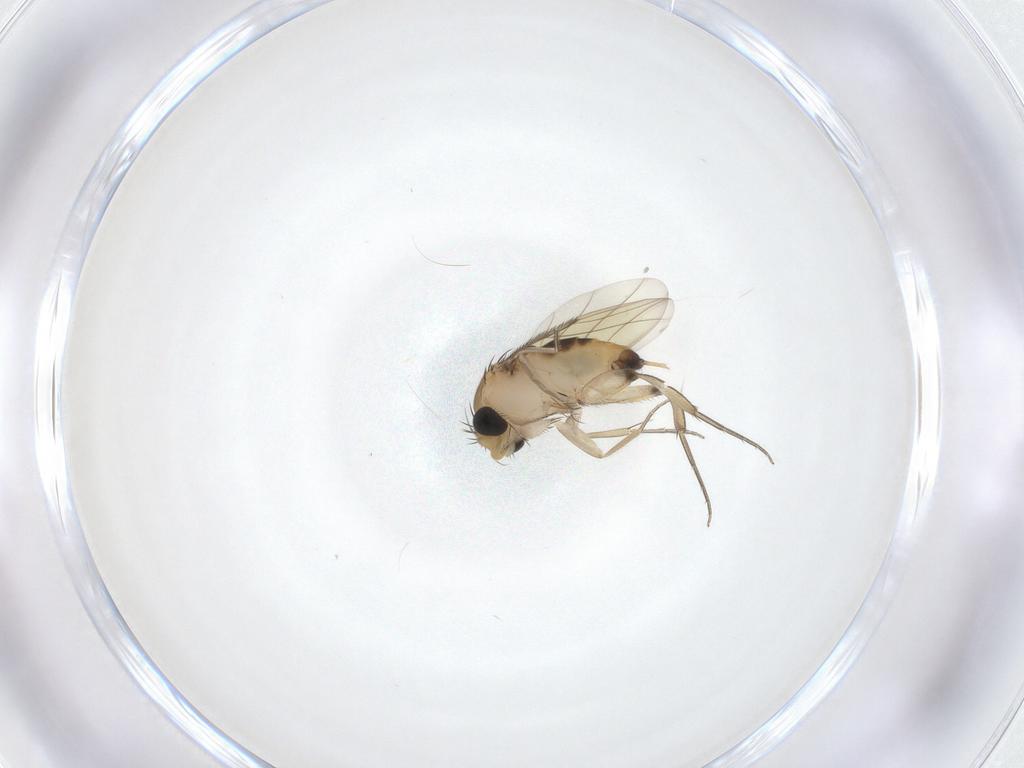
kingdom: Animalia
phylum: Arthropoda
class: Insecta
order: Diptera
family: Phoridae
